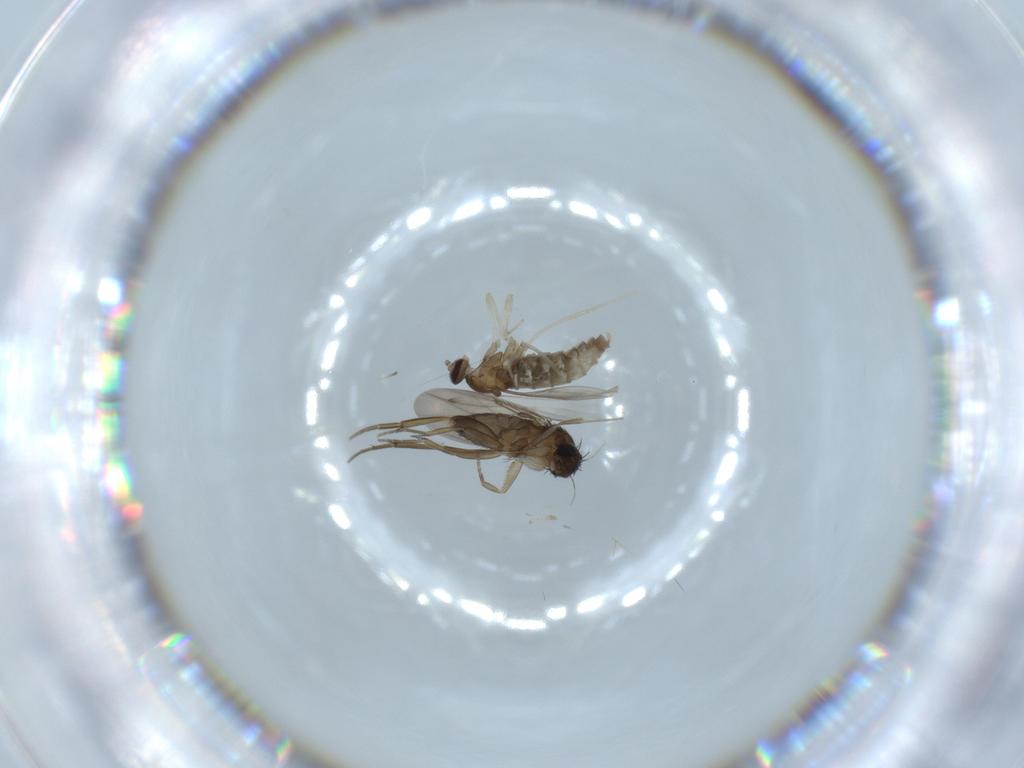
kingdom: Animalia
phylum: Arthropoda
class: Insecta
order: Diptera
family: Phoridae
